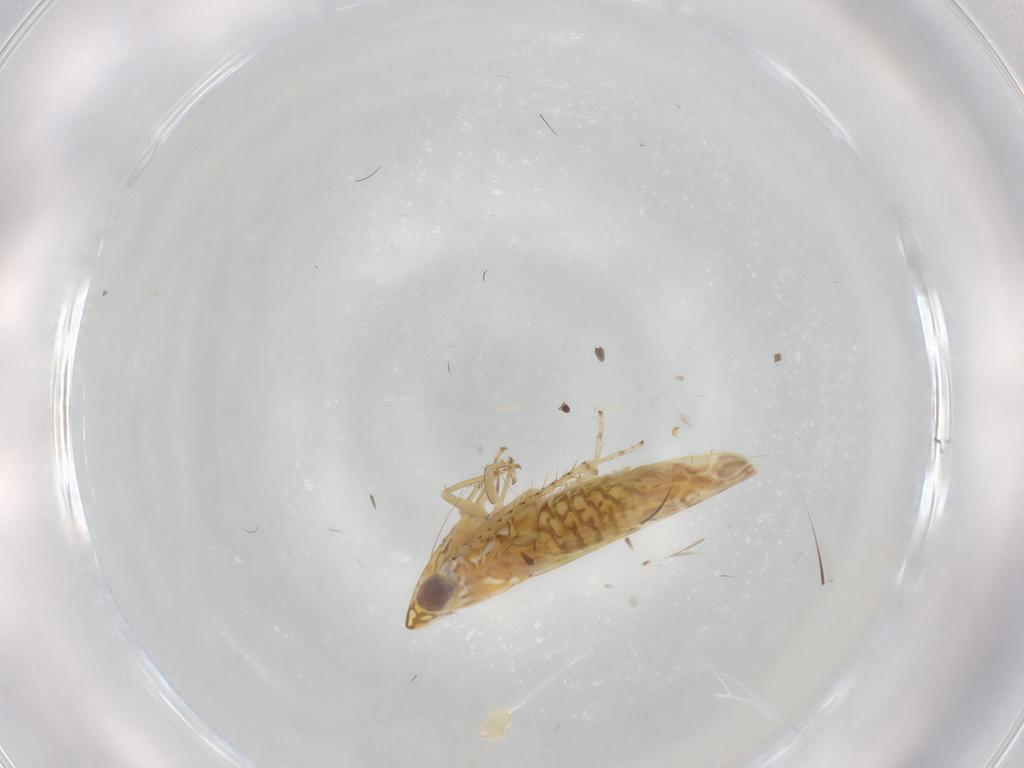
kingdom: Animalia
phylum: Arthropoda
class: Insecta
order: Hemiptera
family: Cicadellidae
